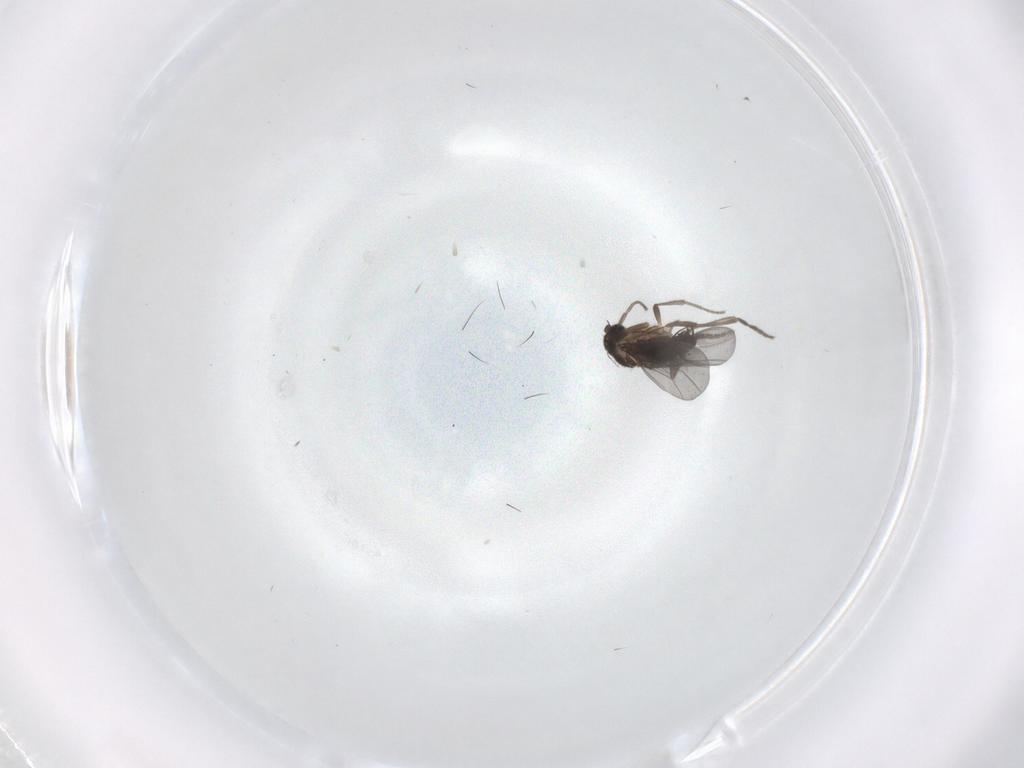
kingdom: Animalia
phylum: Arthropoda
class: Insecta
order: Diptera
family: Phoridae
